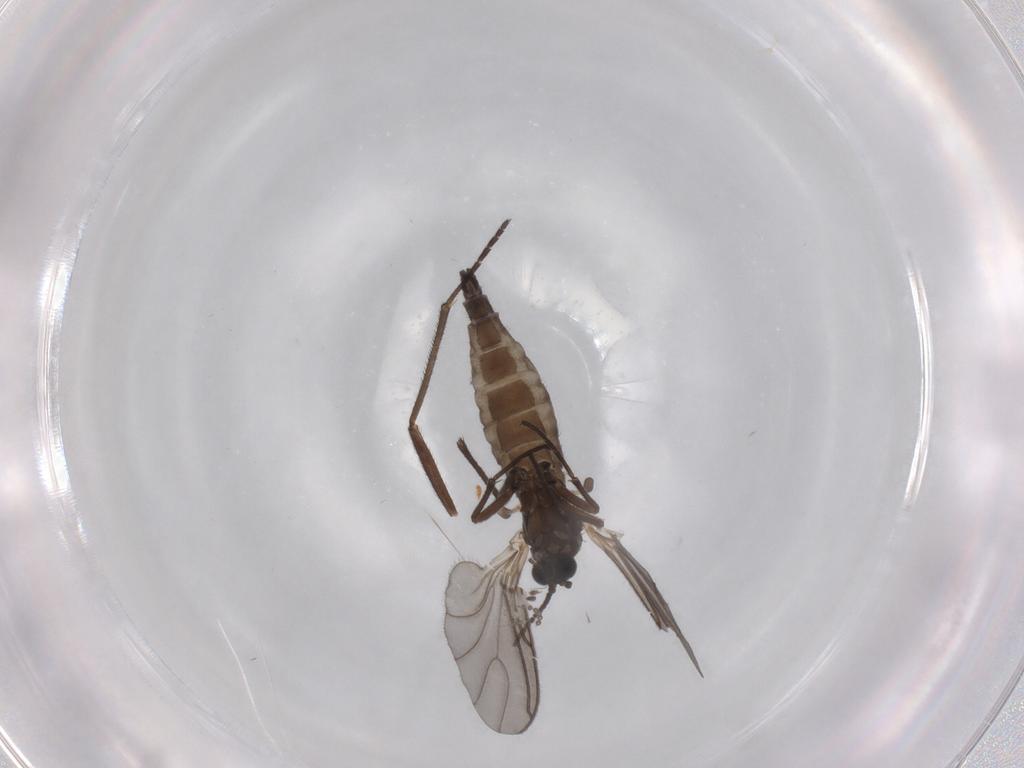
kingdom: Animalia
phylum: Arthropoda
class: Insecta
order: Diptera
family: Sciaridae
